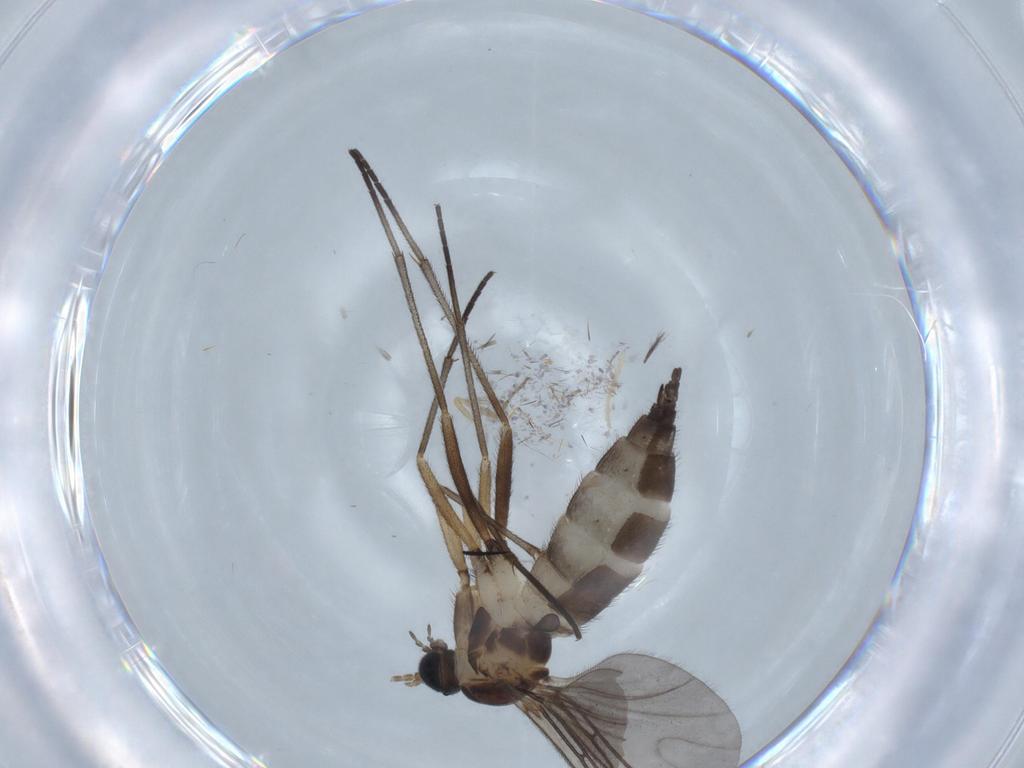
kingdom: Animalia
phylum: Arthropoda
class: Insecta
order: Diptera
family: Sciaridae
